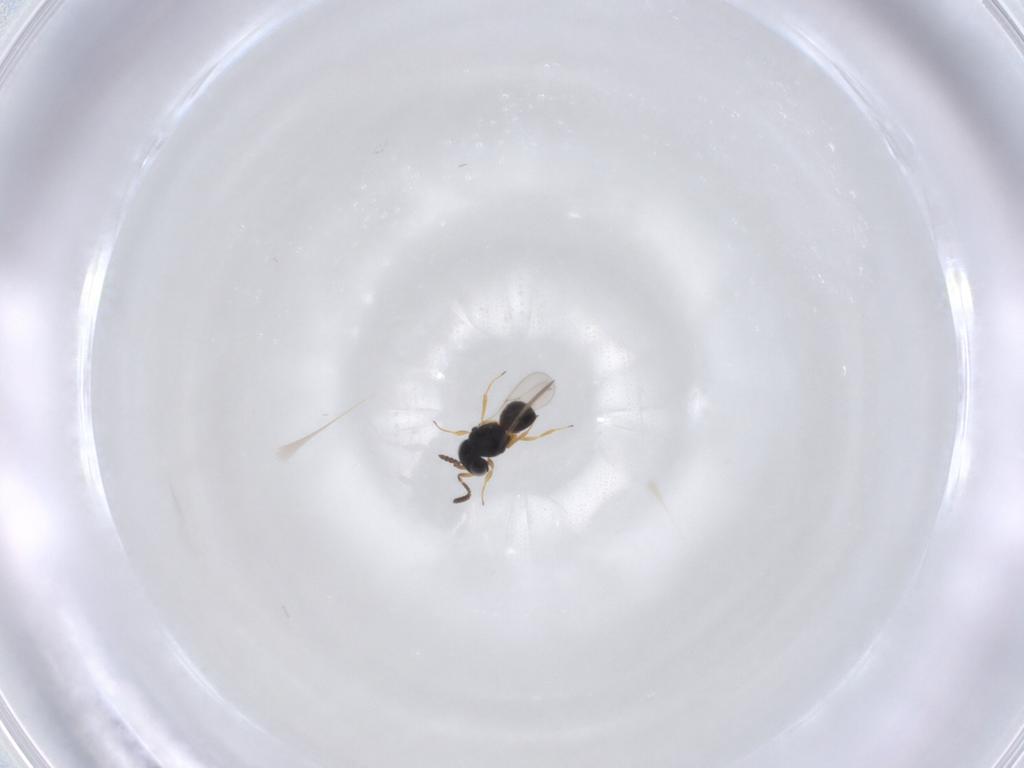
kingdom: Animalia
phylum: Arthropoda
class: Insecta
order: Hymenoptera
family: Scelionidae
